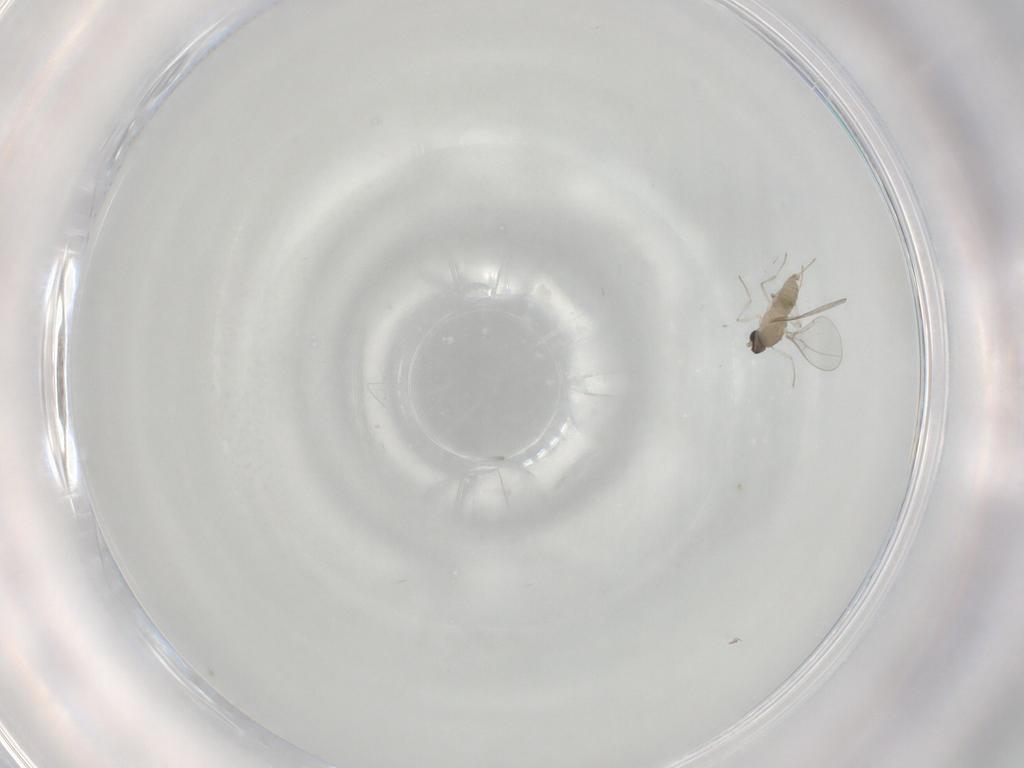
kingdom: Animalia
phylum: Arthropoda
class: Insecta
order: Diptera
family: Cecidomyiidae
